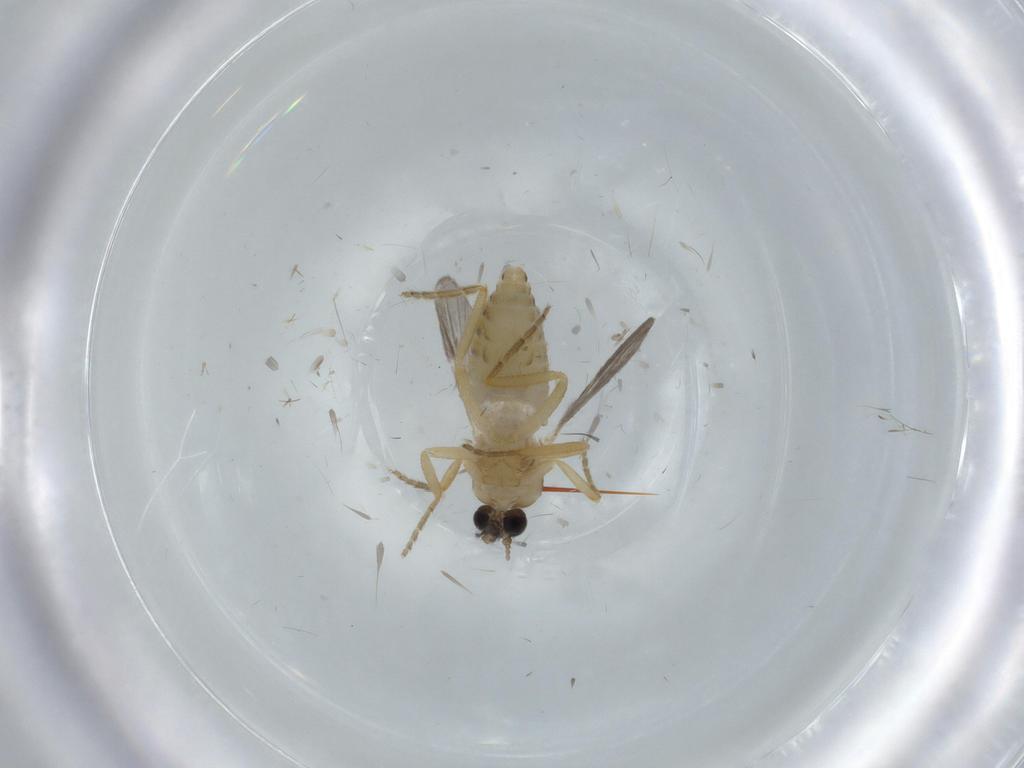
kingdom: Animalia
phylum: Arthropoda
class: Insecta
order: Diptera
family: Ceratopogonidae
